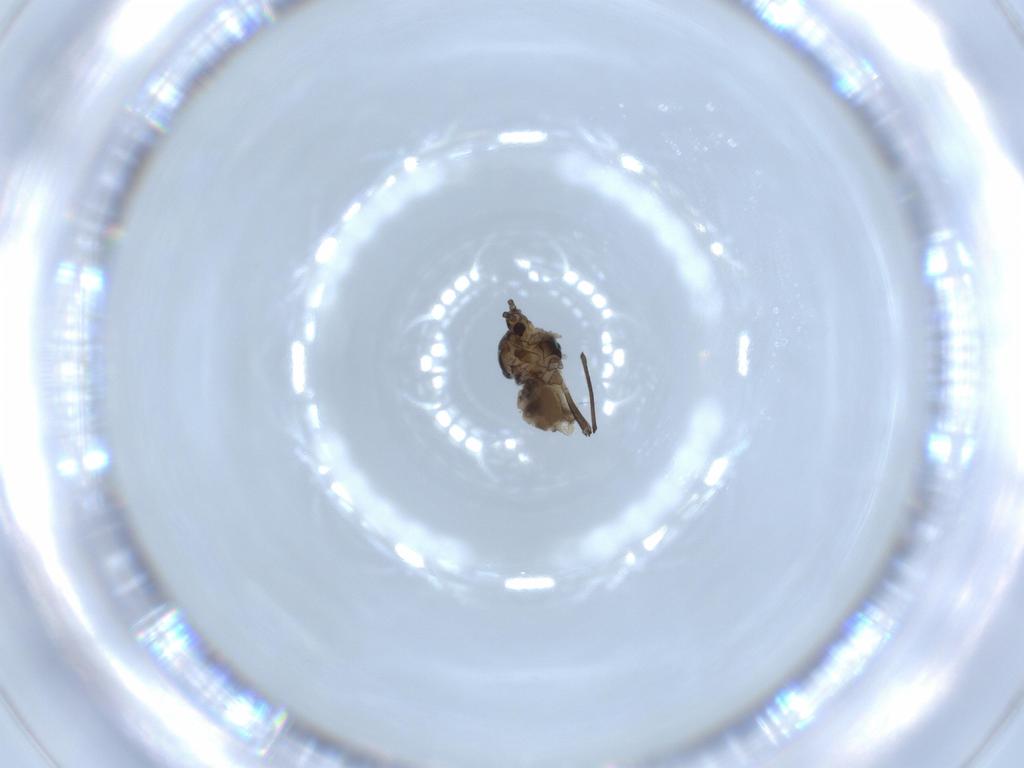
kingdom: Animalia
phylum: Arthropoda
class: Insecta
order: Hemiptera
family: Aphididae
